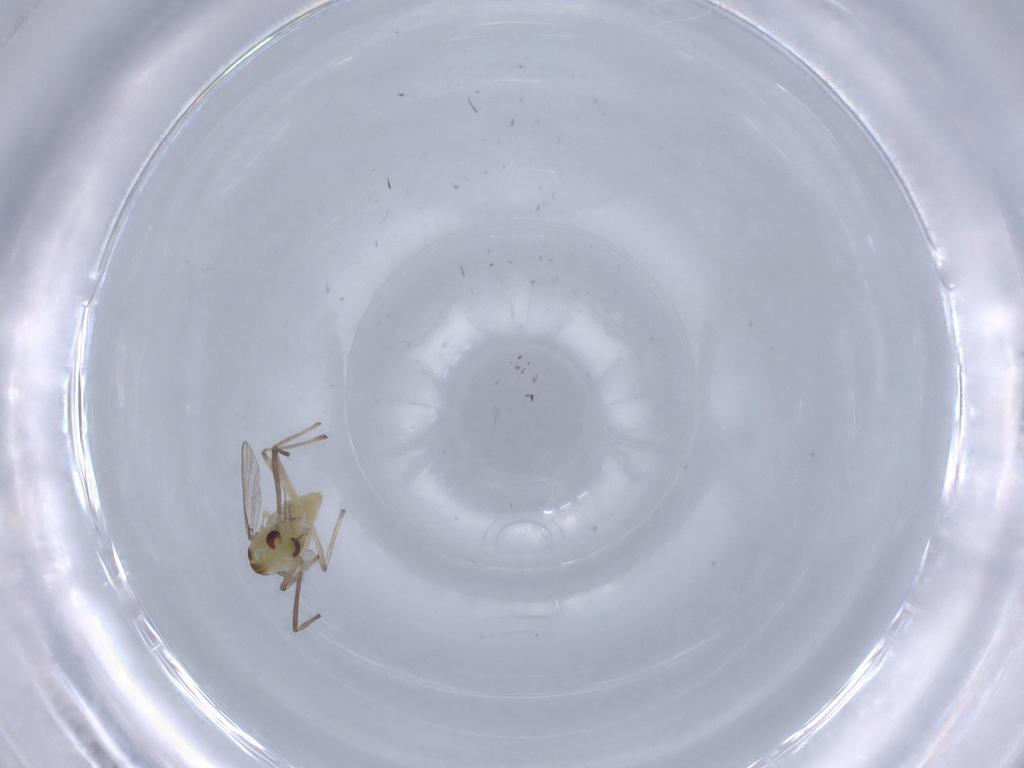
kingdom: Animalia
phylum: Arthropoda
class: Insecta
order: Diptera
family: Chironomidae
